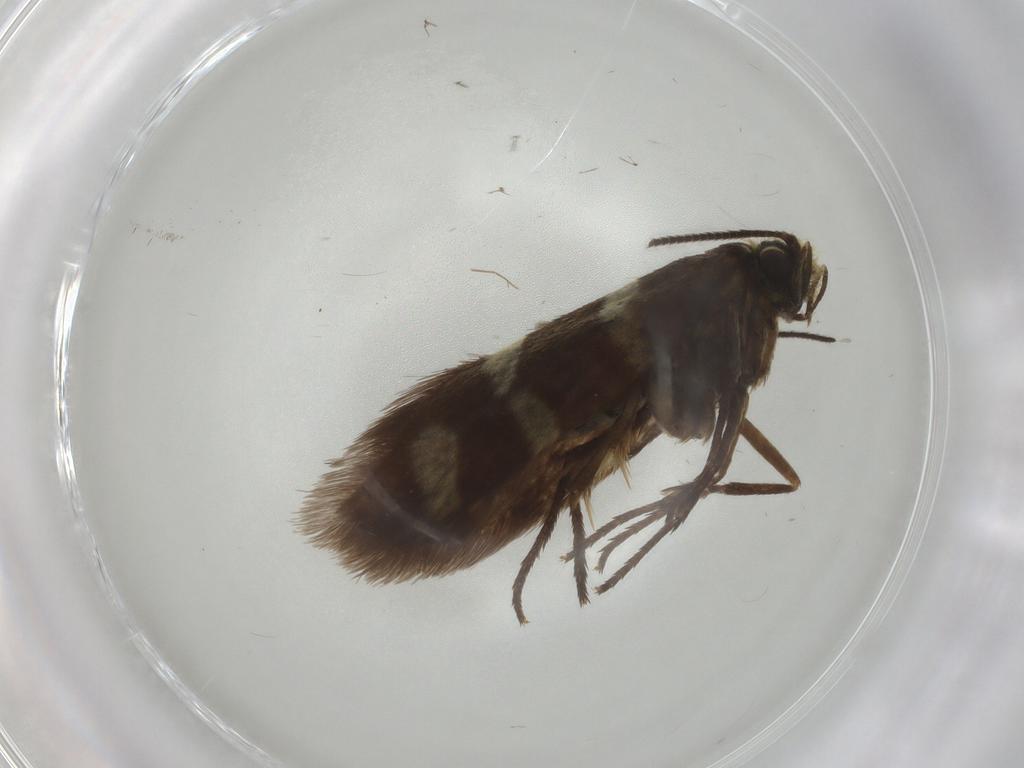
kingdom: Animalia
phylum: Arthropoda
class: Insecta
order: Lepidoptera
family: Micropterigidae
